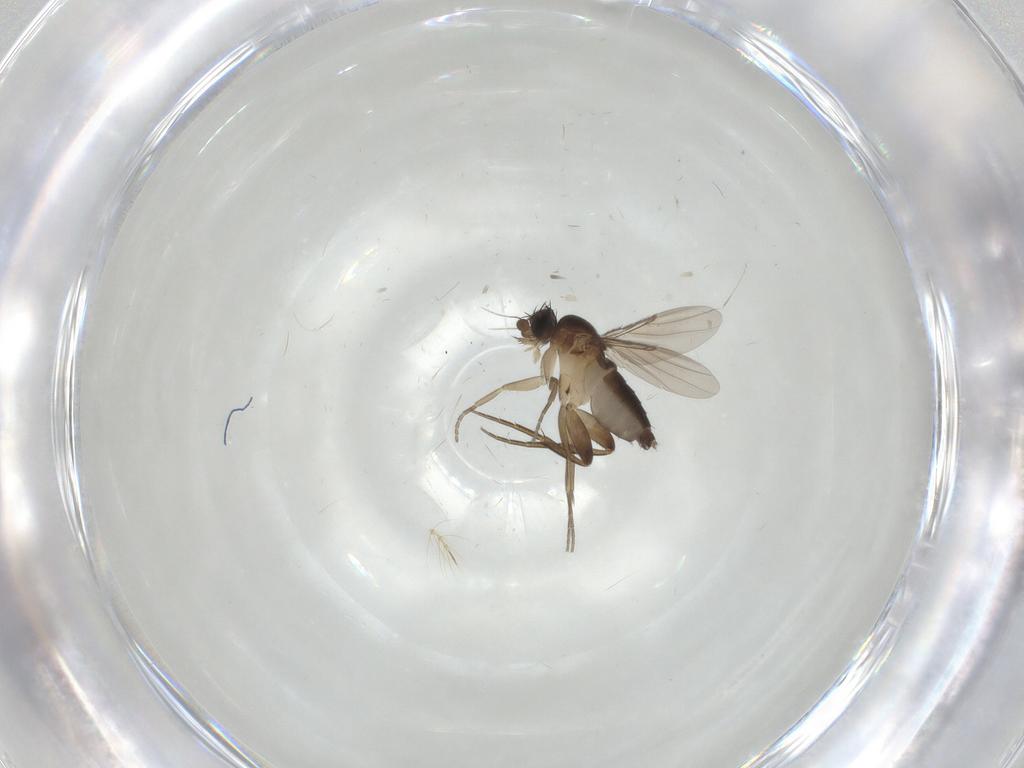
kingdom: Animalia
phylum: Arthropoda
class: Insecta
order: Diptera
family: Phoridae
